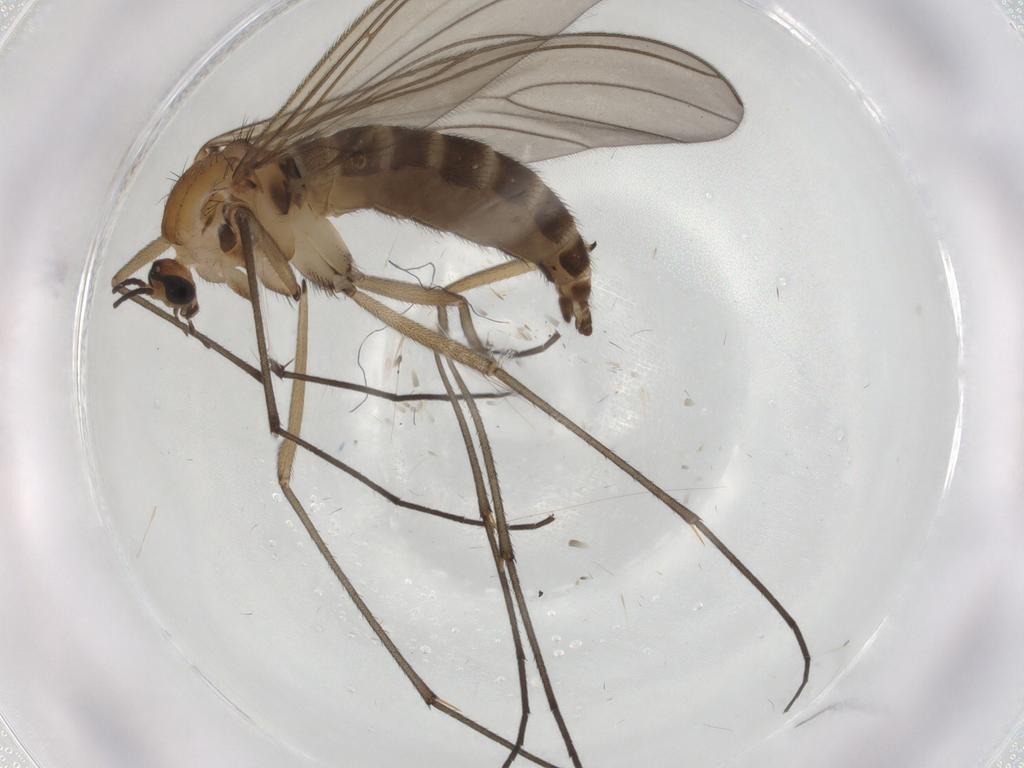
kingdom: Animalia
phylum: Arthropoda
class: Insecta
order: Diptera
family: Sciaridae
